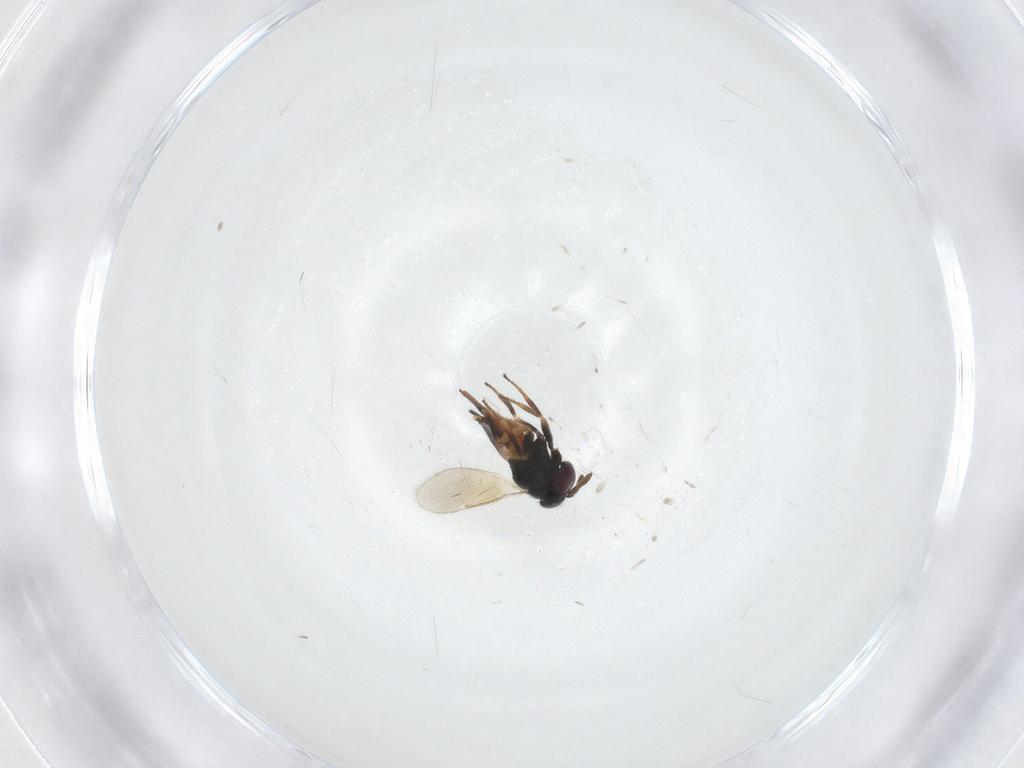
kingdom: Animalia
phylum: Arthropoda
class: Insecta
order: Hymenoptera
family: Aphelinidae
